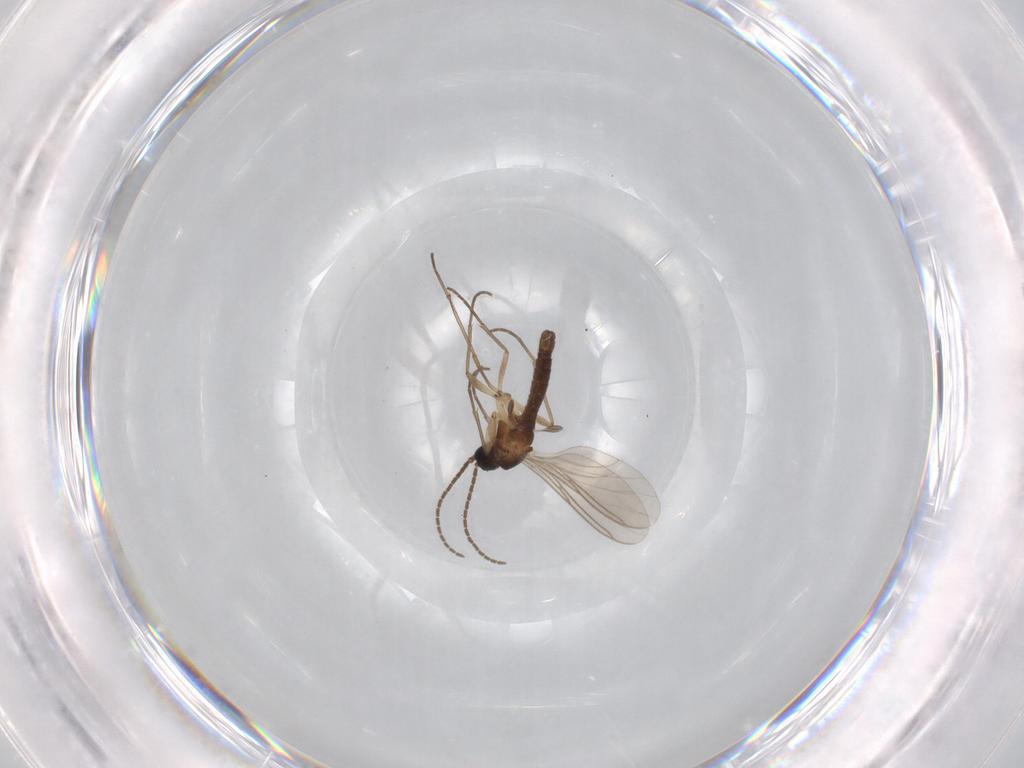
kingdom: Animalia
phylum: Arthropoda
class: Insecta
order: Diptera
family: Sciaridae
